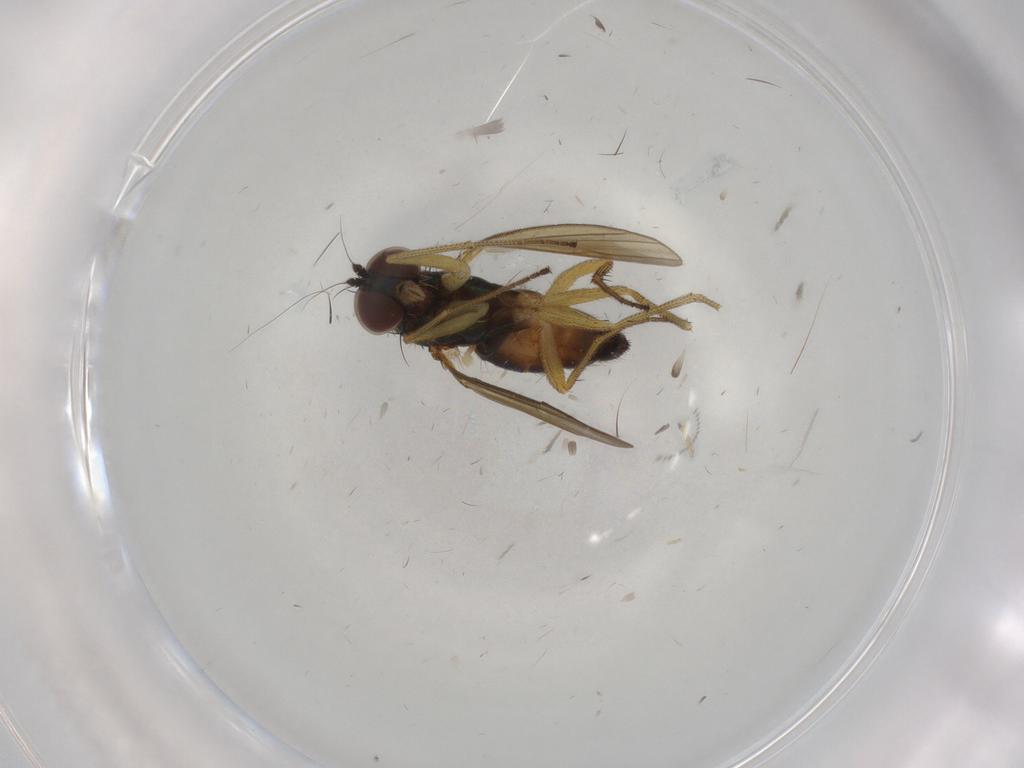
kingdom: Animalia
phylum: Arthropoda
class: Insecta
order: Diptera
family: Dolichopodidae
